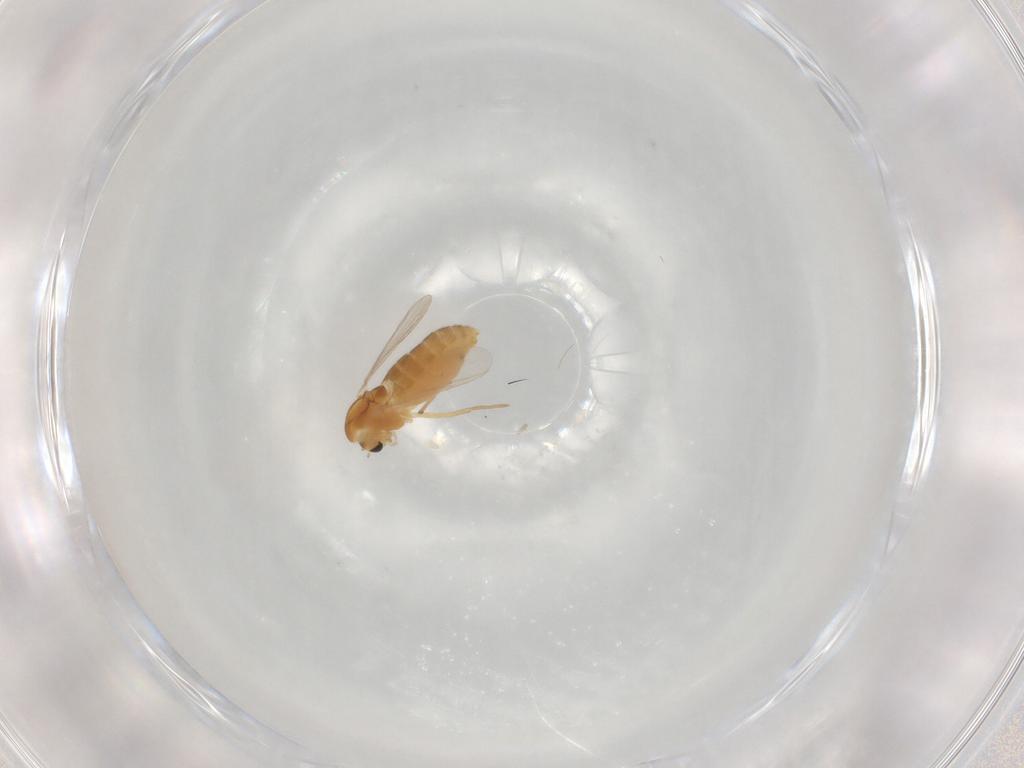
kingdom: Animalia
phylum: Arthropoda
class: Insecta
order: Diptera
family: Chironomidae
